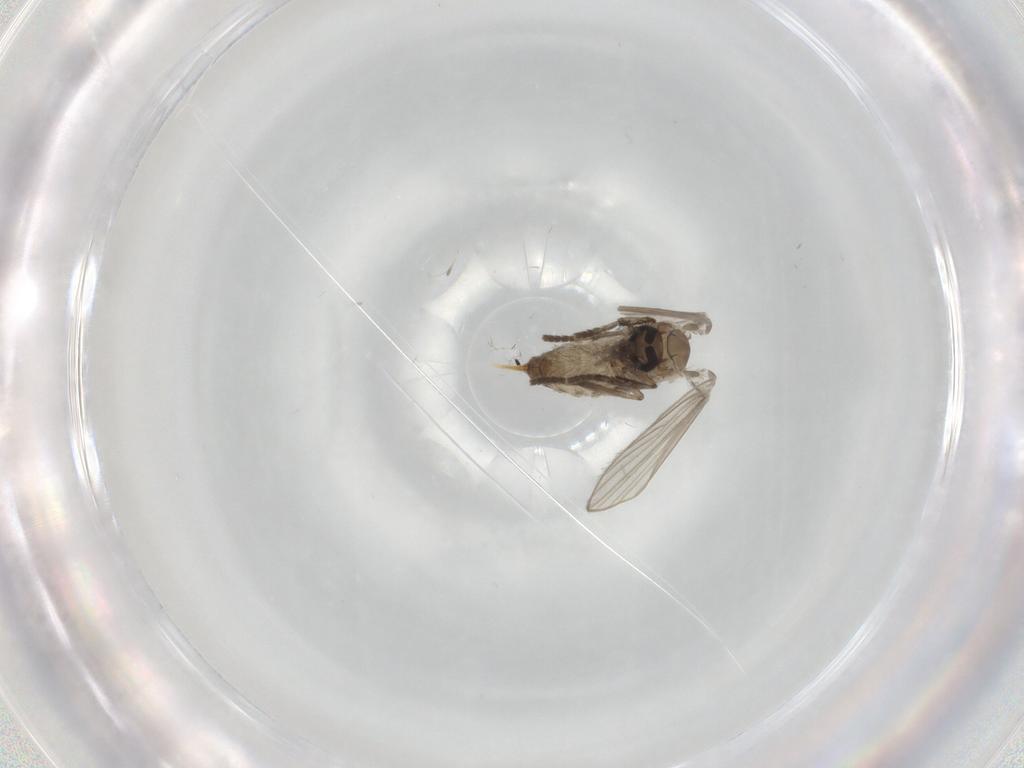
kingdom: Animalia
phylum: Arthropoda
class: Insecta
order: Diptera
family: Psychodidae
